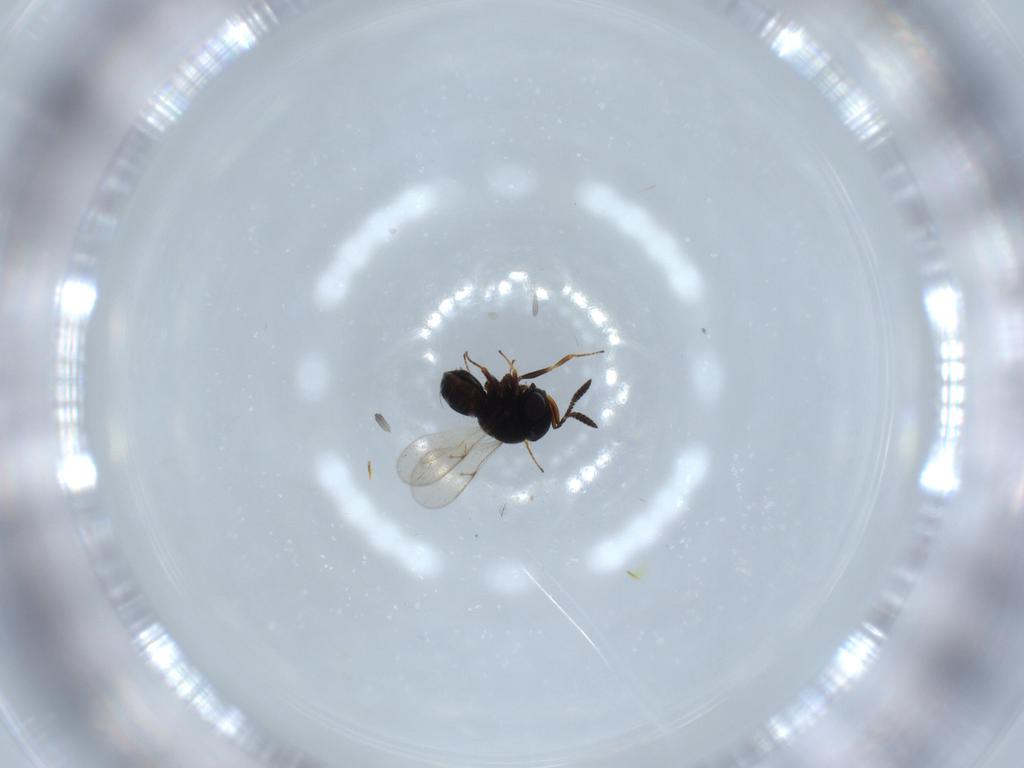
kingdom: Animalia
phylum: Arthropoda
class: Insecta
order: Hymenoptera
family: Scelionidae
